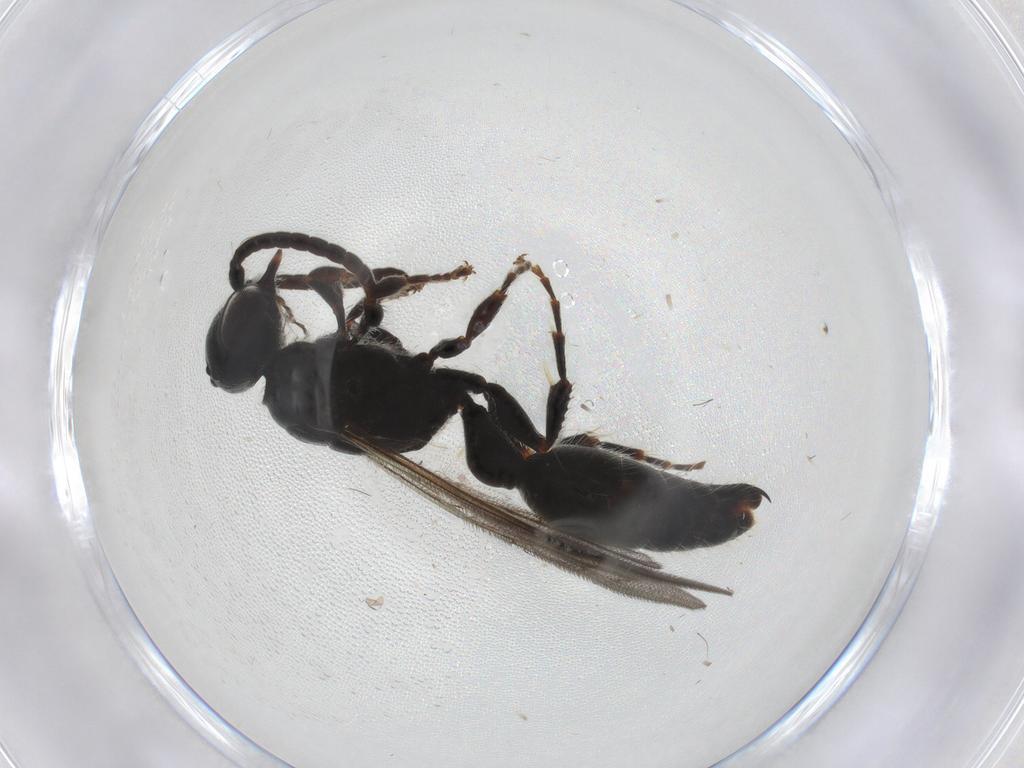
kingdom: Animalia
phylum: Arthropoda
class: Insecta
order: Hymenoptera
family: Tiphiidae
